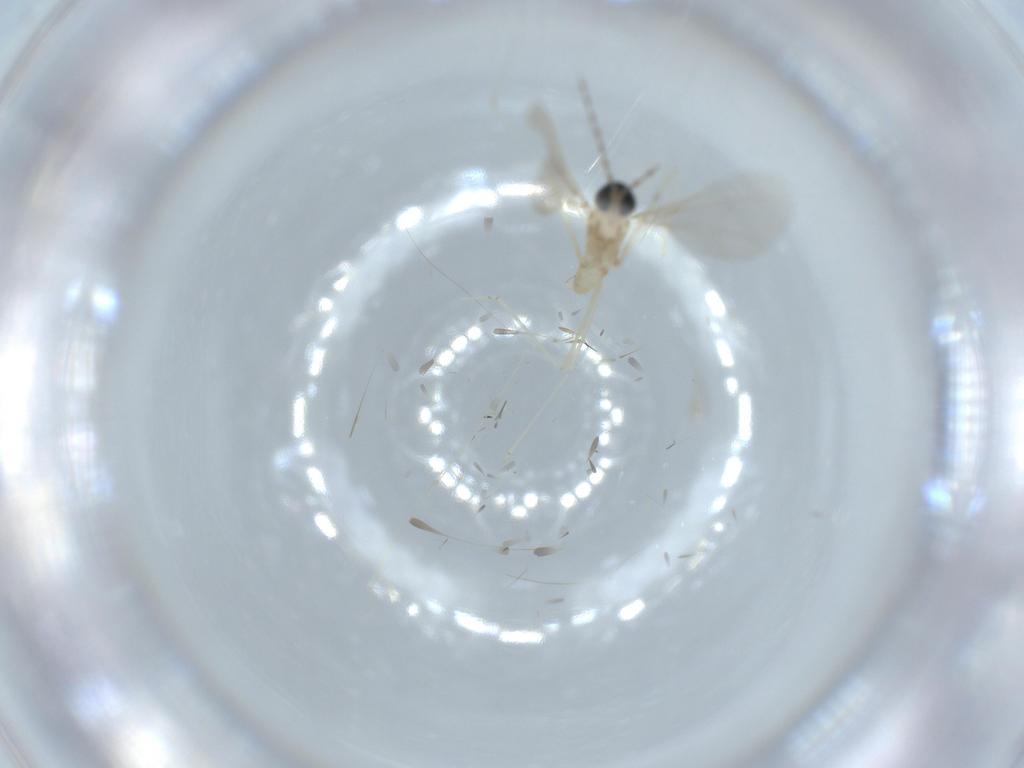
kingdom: Animalia
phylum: Arthropoda
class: Insecta
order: Diptera
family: Cecidomyiidae
